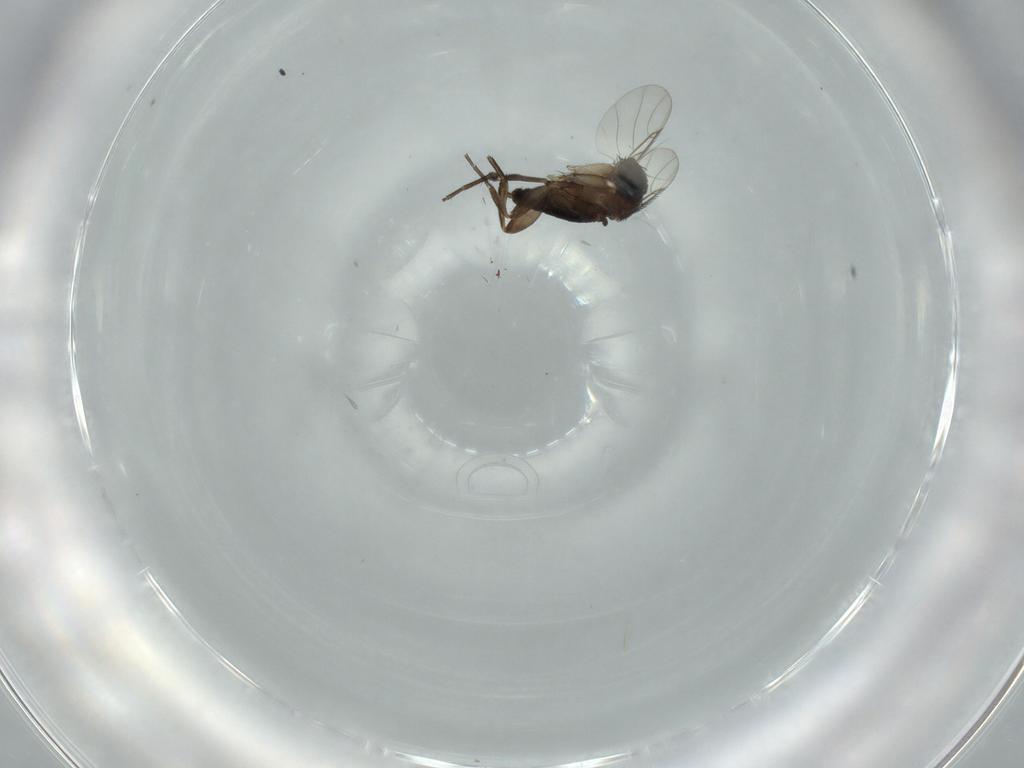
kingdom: Animalia
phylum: Arthropoda
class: Insecta
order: Diptera
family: Phoridae
